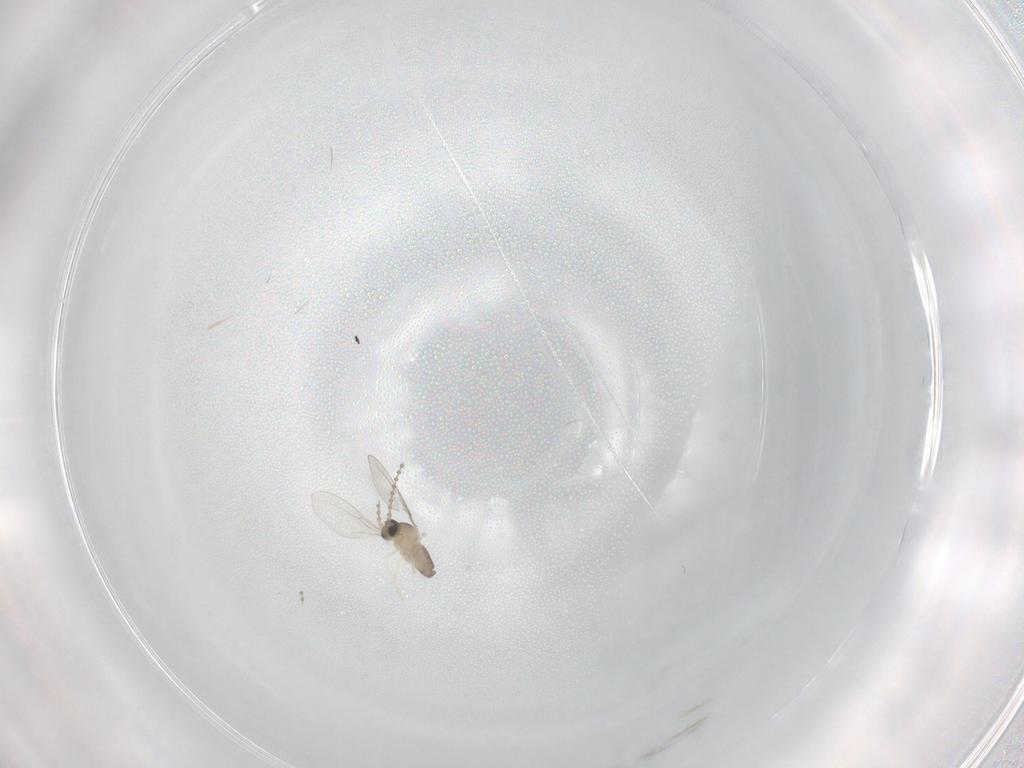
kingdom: Animalia
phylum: Arthropoda
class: Insecta
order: Diptera
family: Cecidomyiidae
